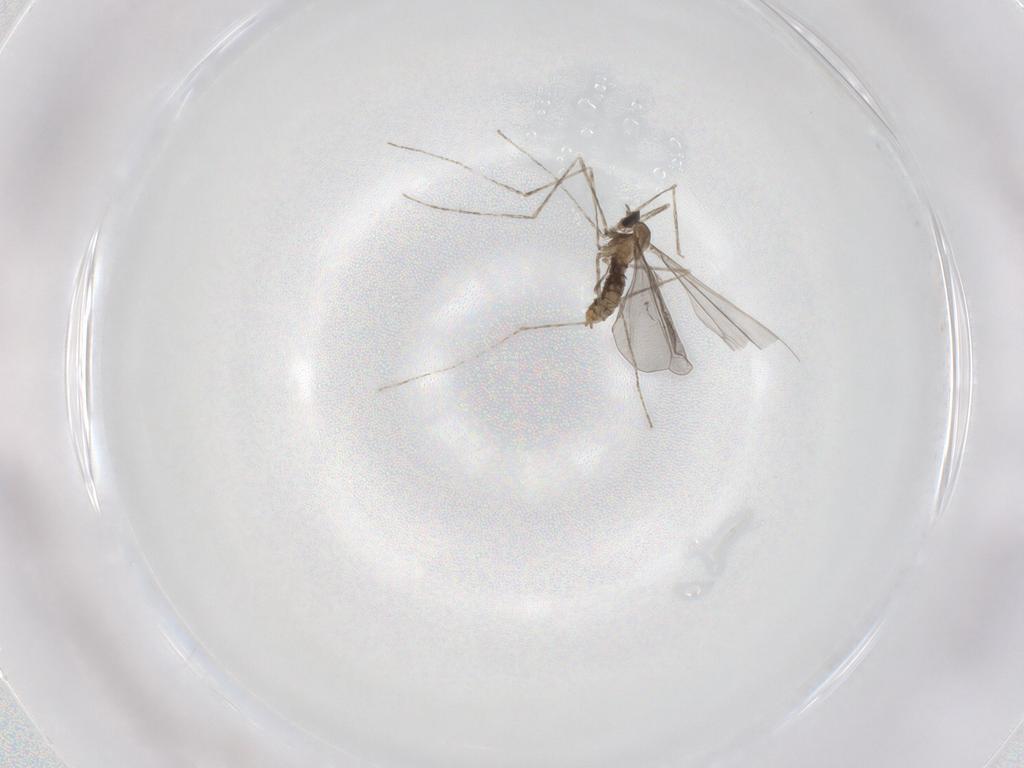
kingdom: Animalia
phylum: Arthropoda
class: Insecta
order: Diptera
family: Cecidomyiidae
